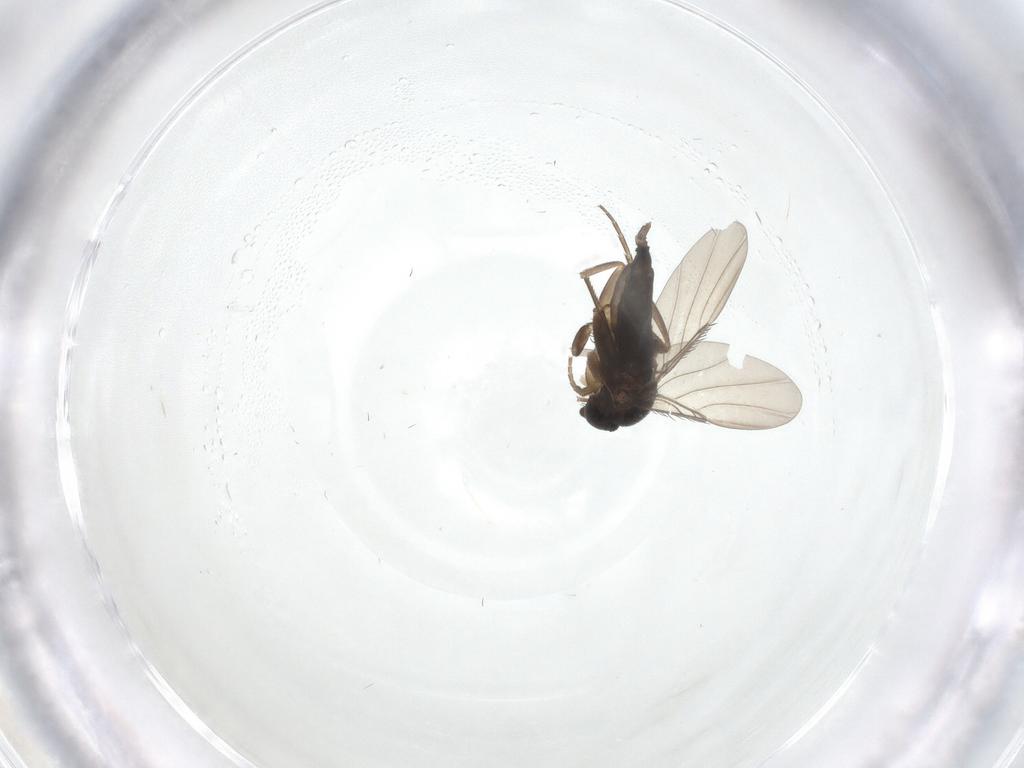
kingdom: Animalia
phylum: Arthropoda
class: Insecta
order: Diptera
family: Phoridae
